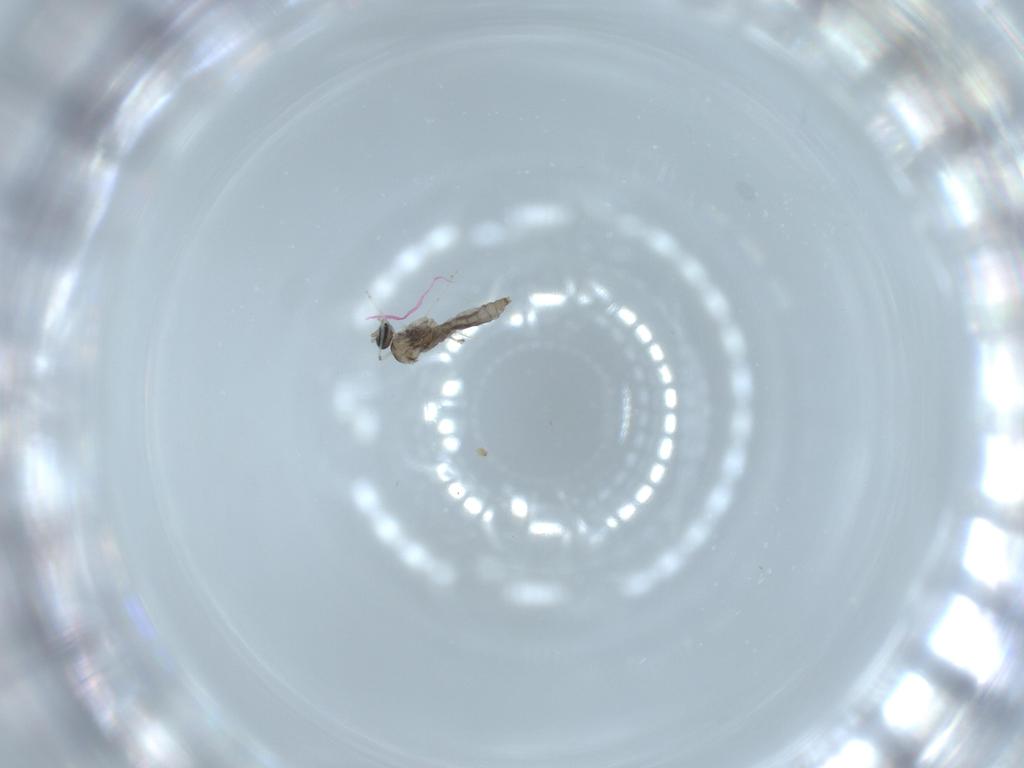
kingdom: Animalia
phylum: Arthropoda
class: Insecta
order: Diptera
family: Cecidomyiidae
